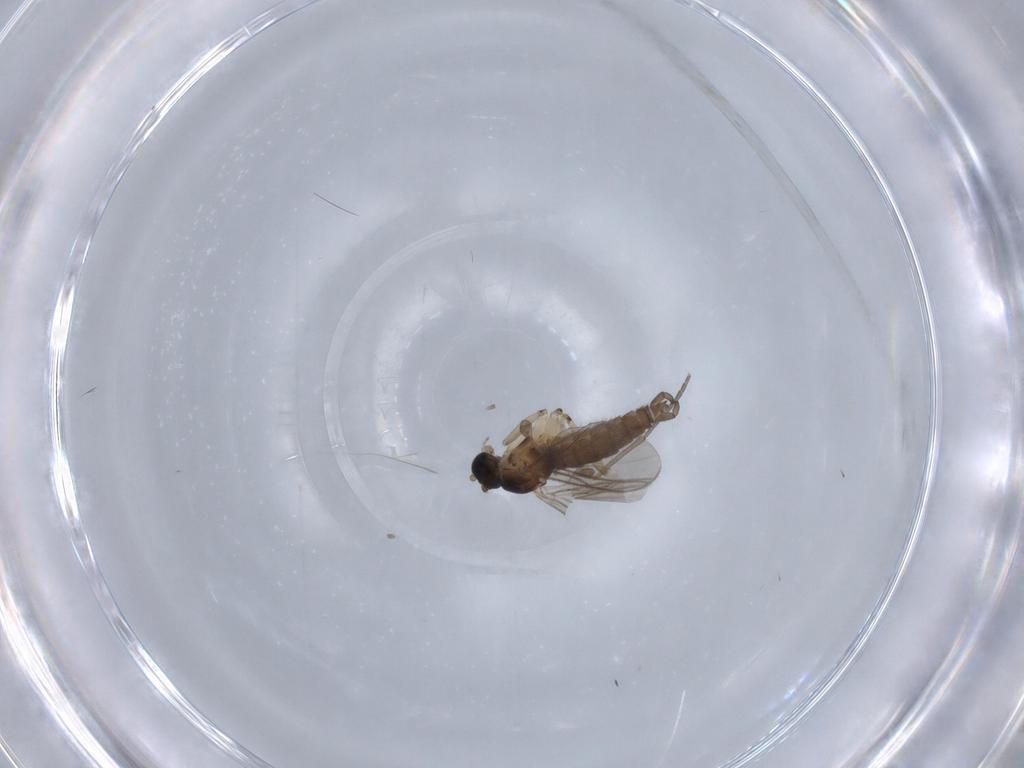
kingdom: Animalia
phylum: Arthropoda
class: Insecta
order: Diptera
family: Sciaridae
